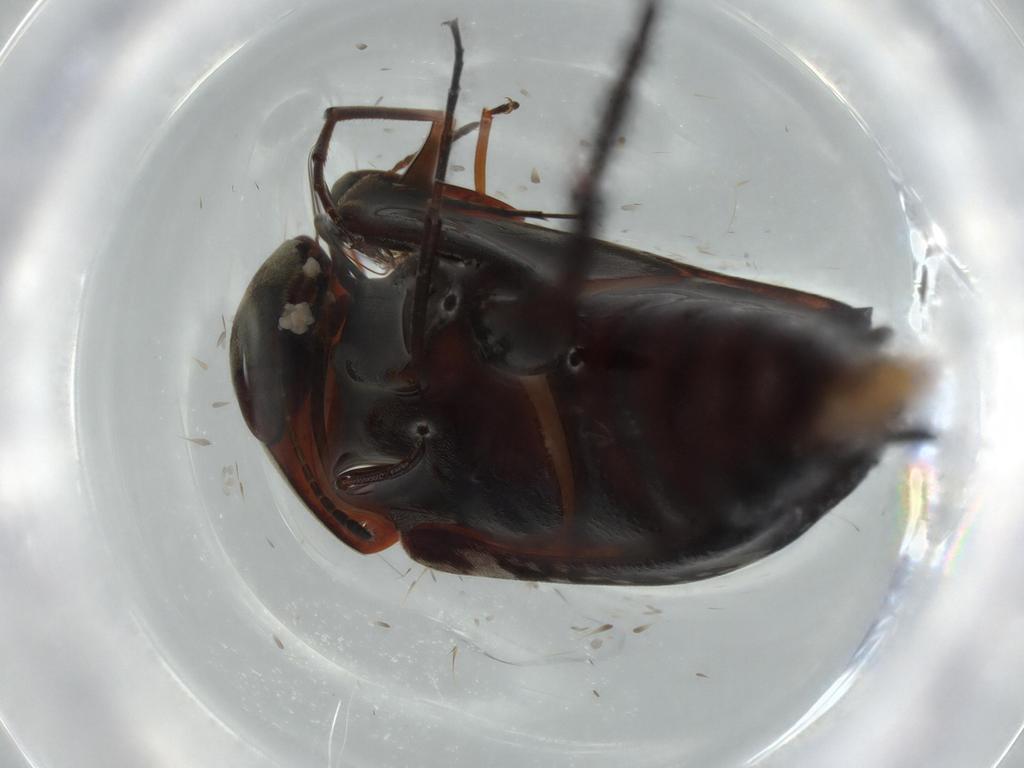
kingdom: Animalia
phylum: Arthropoda
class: Insecta
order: Coleoptera
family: Mordellidae
